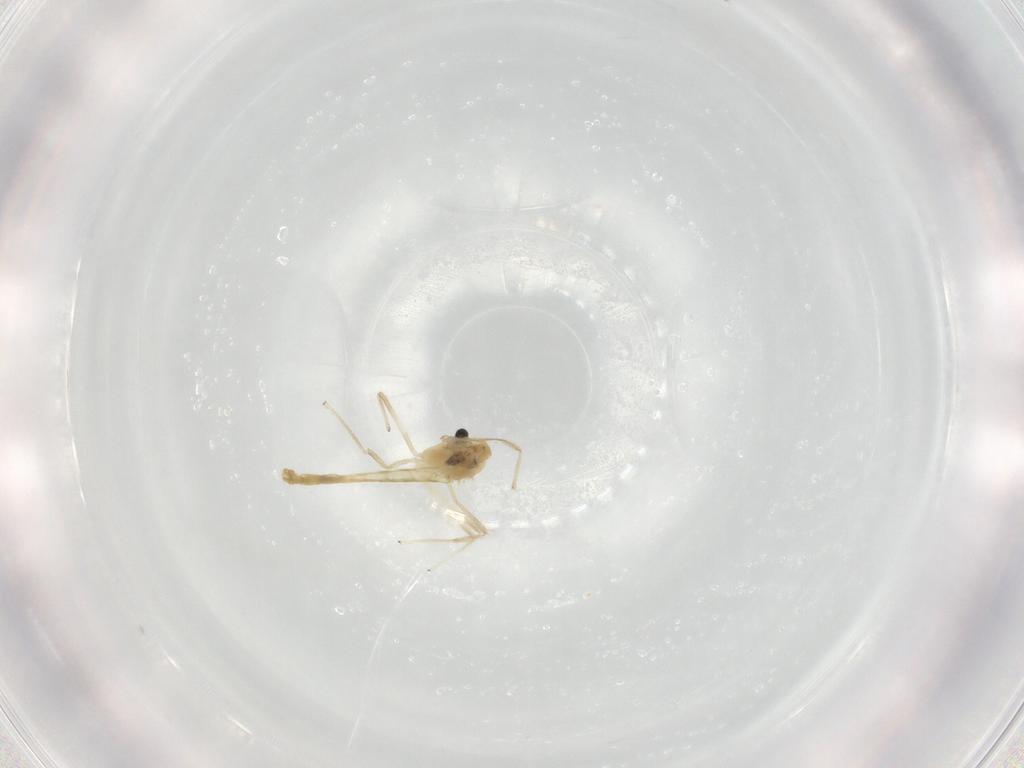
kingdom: Animalia
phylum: Arthropoda
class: Insecta
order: Diptera
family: Chironomidae
